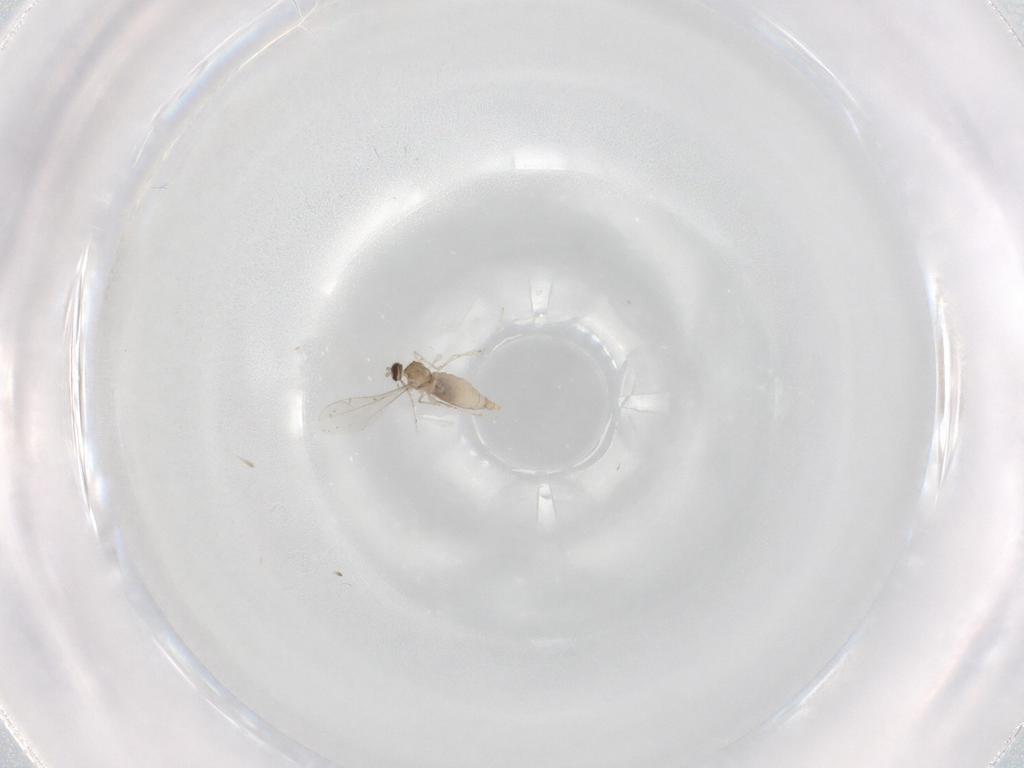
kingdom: Animalia
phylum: Arthropoda
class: Insecta
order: Diptera
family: Cecidomyiidae
